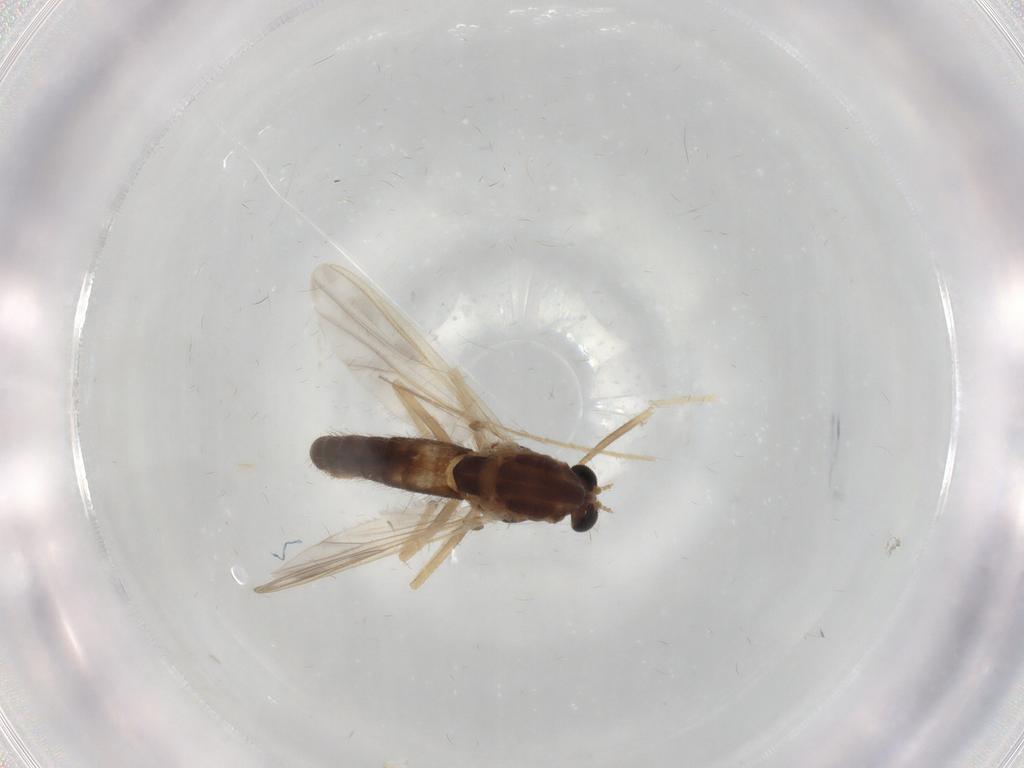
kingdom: Animalia
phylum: Arthropoda
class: Insecta
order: Diptera
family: Chironomidae
